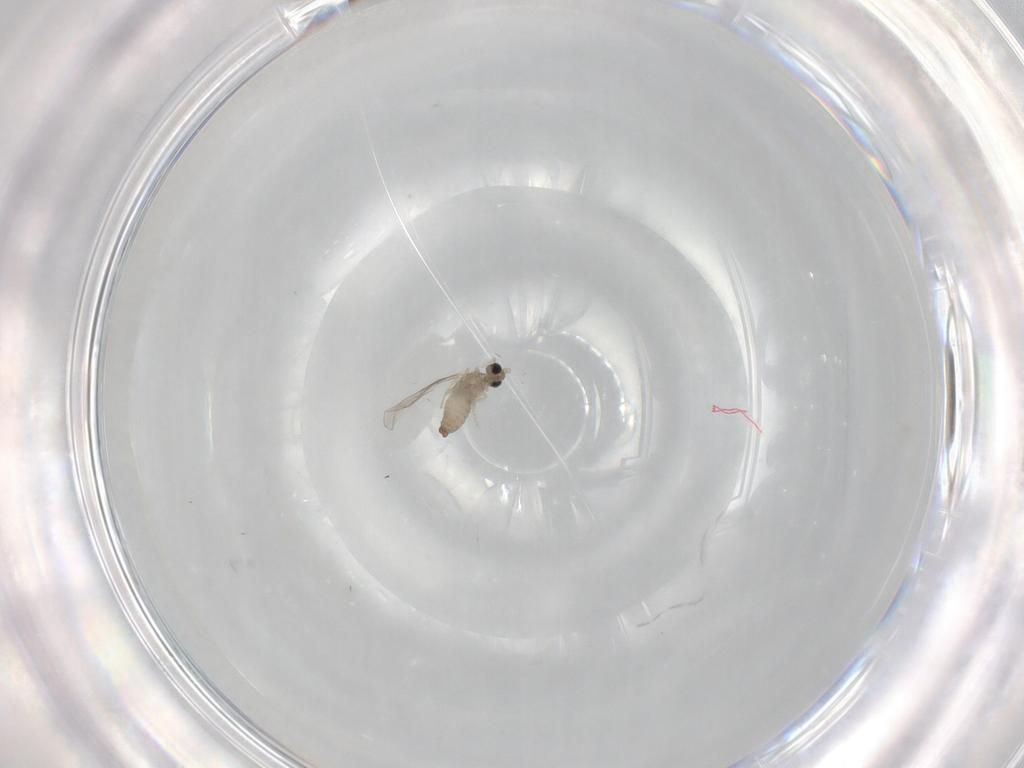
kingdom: Animalia
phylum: Arthropoda
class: Insecta
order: Diptera
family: Cecidomyiidae
